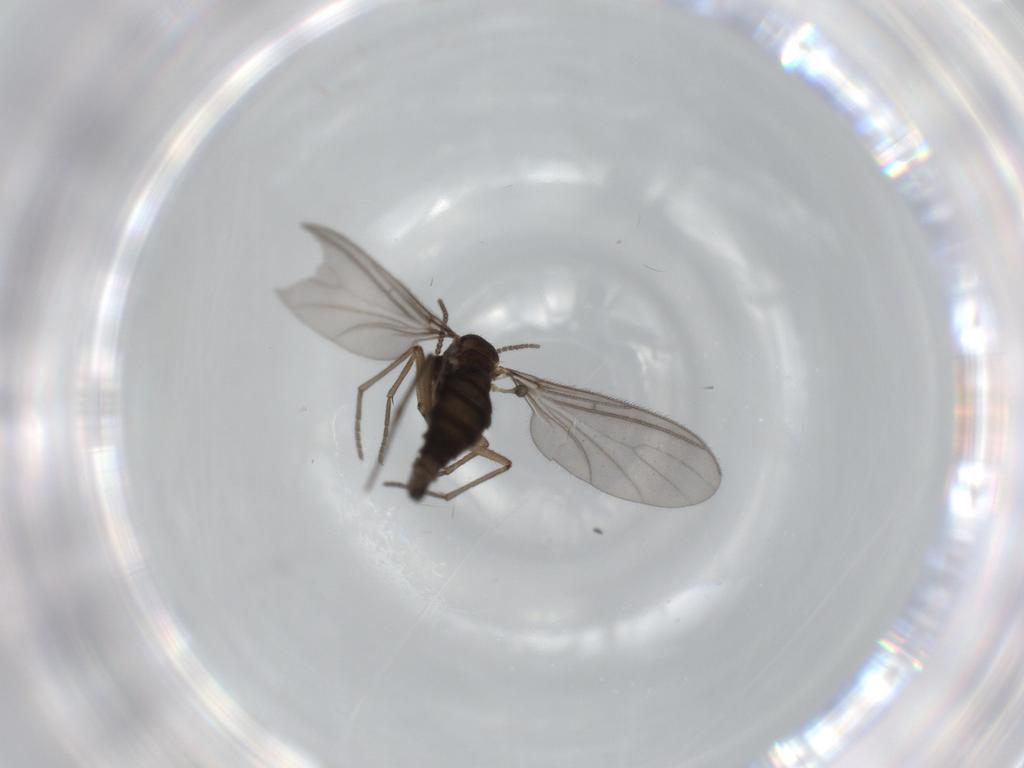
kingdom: Animalia
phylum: Arthropoda
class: Insecta
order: Diptera
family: Sciaridae
